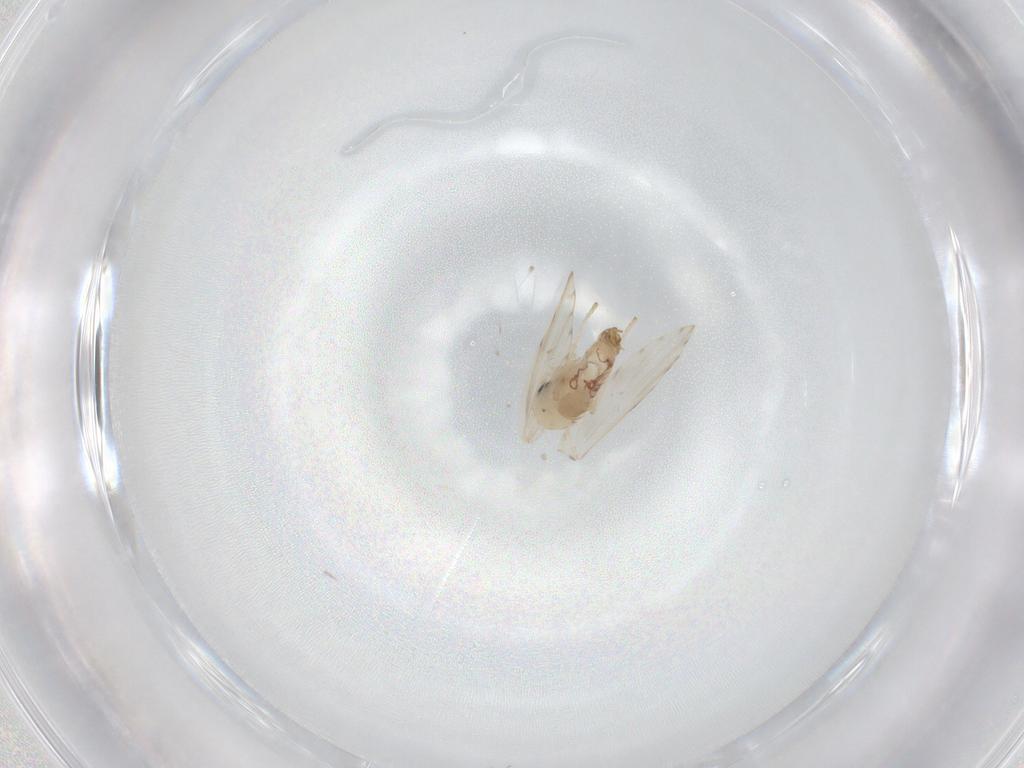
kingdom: Animalia
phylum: Arthropoda
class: Insecta
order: Diptera
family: Psychodidae
